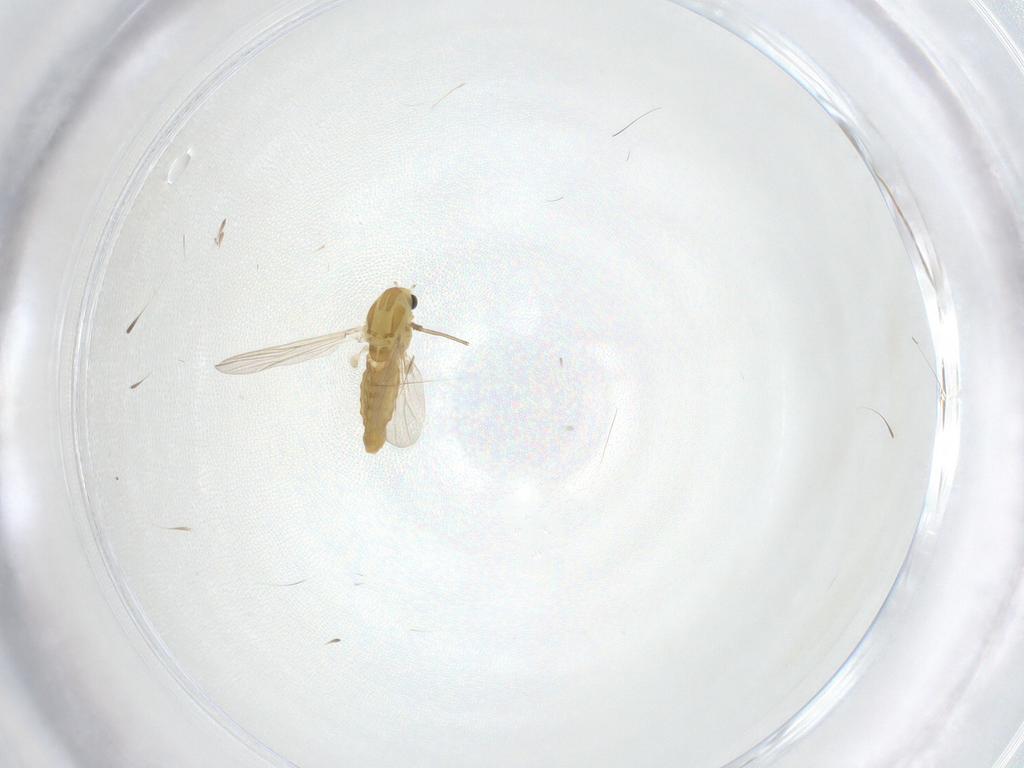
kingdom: Animalia
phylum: Arthropoda
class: Insecta
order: Diptera
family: Chironomidae
